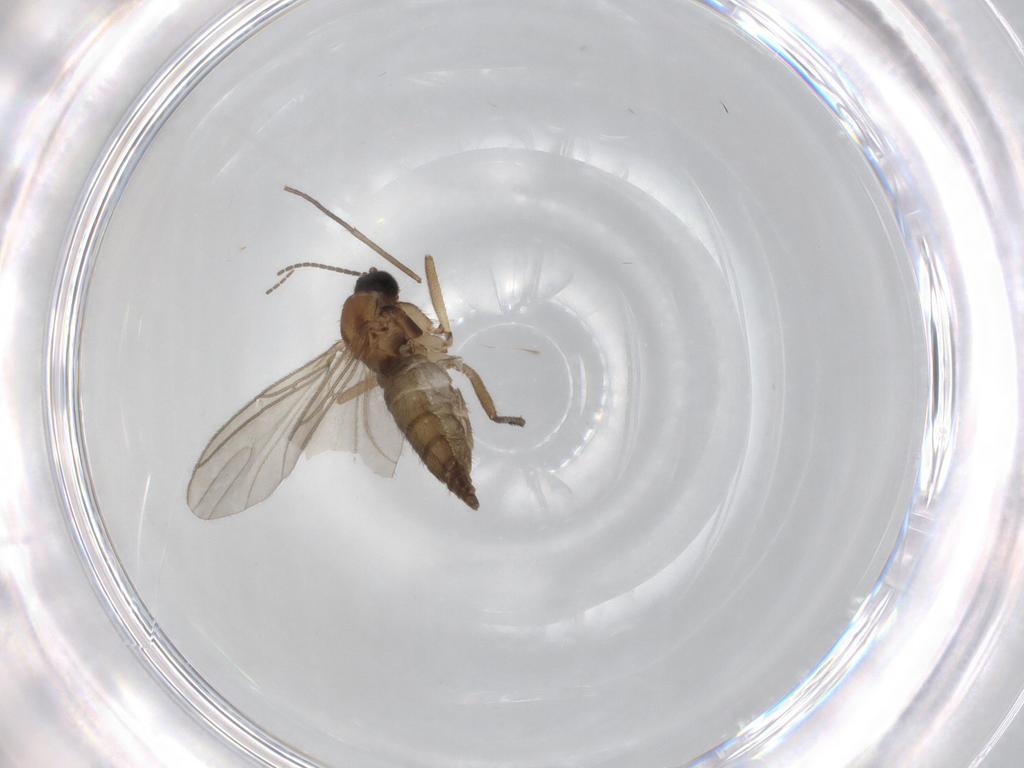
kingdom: Animalia
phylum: Arthropoda
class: Insecta
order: Diptera
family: Sciaridae
